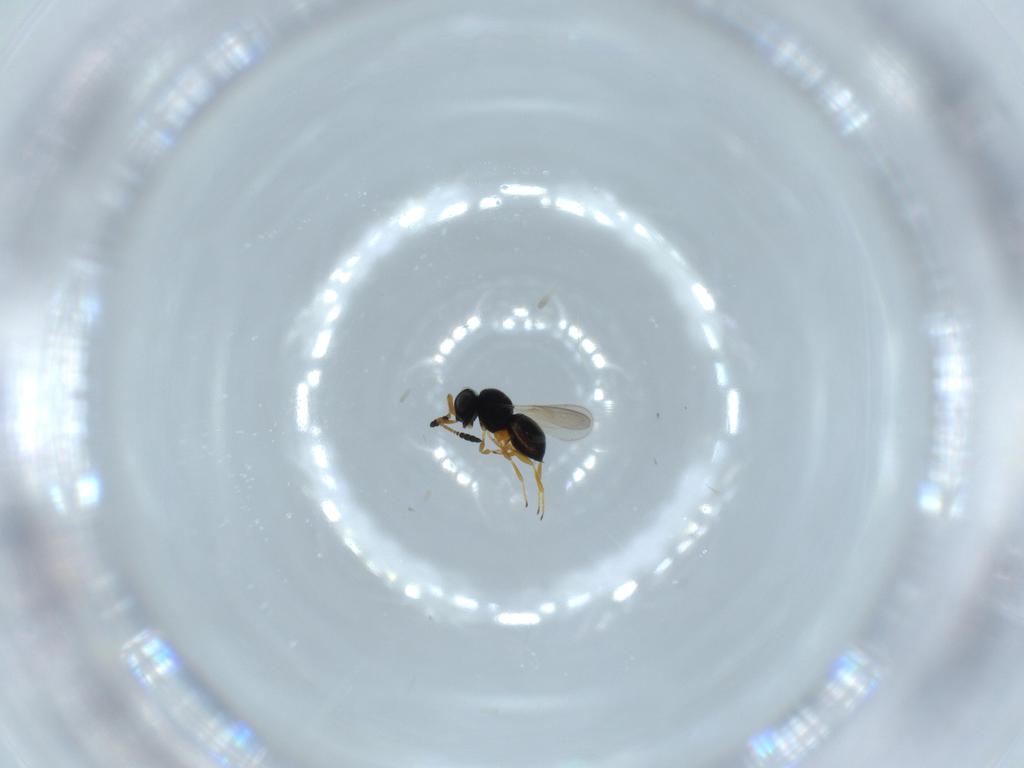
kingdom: Animalia
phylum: Arthropoda
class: Insecta
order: Hymenoptera
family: Scelionidae
